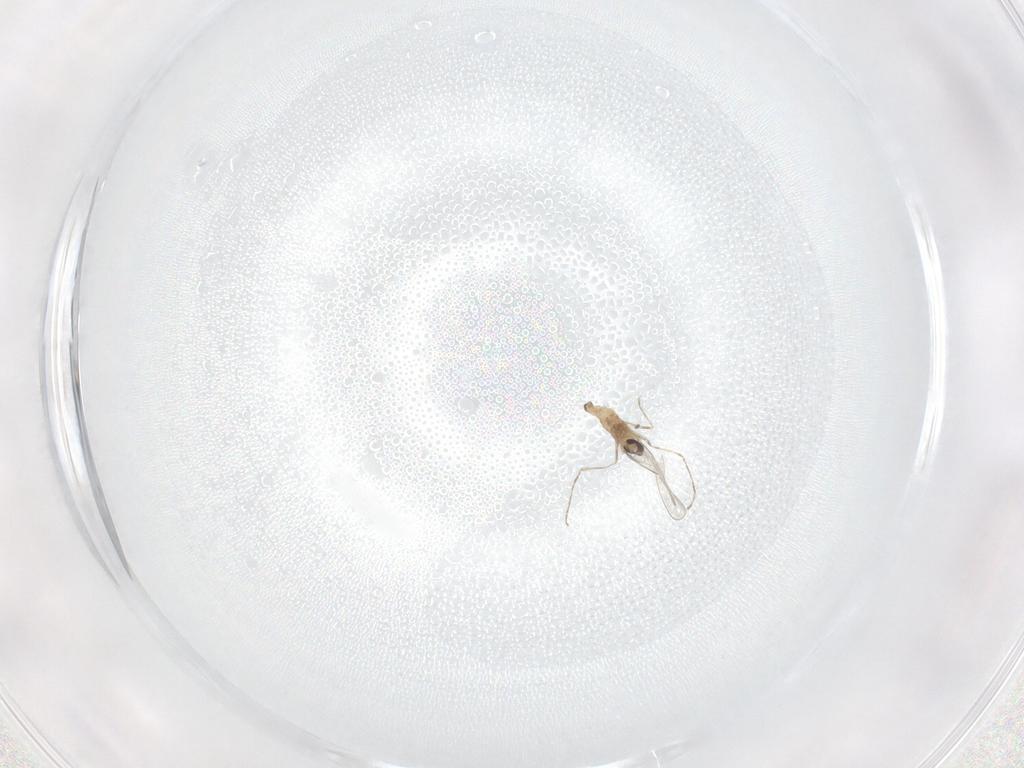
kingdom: Animalia
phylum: Arthropoda
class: Insecta
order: Diptera
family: Cecidomyiidae
